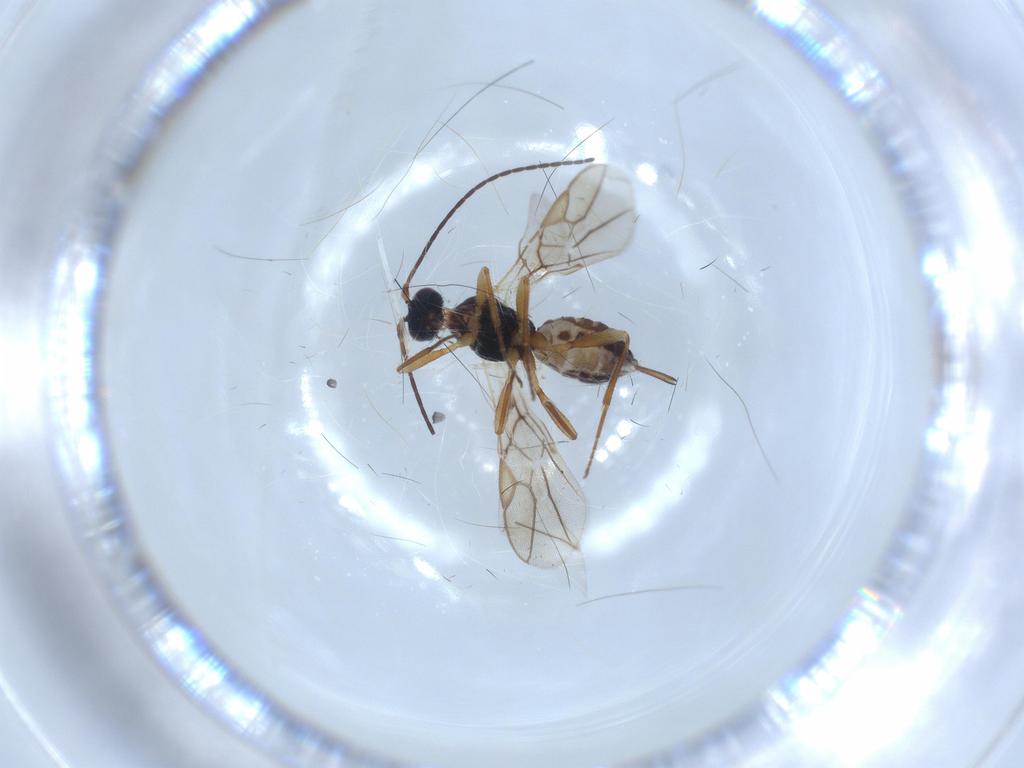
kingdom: Animalia
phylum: Arthropoda
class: Insecta
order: Hymenoptera
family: Braconidae
